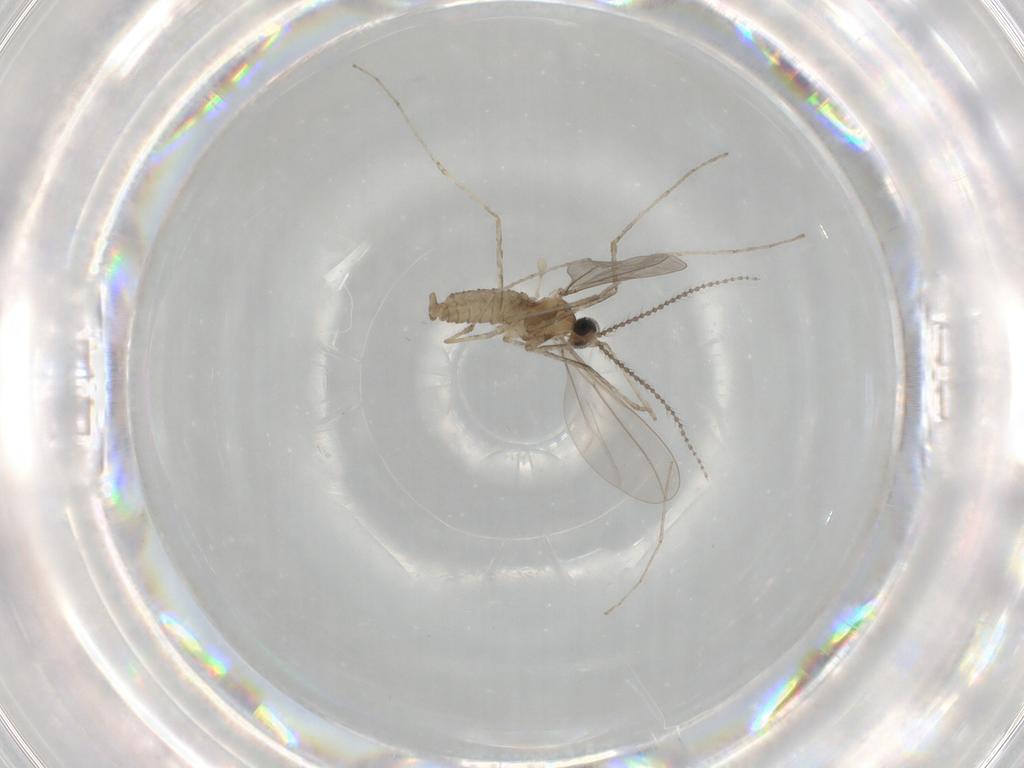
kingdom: Animalia
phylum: Arthropoda
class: Insecta
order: Diptera
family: Cecidomyiidae
